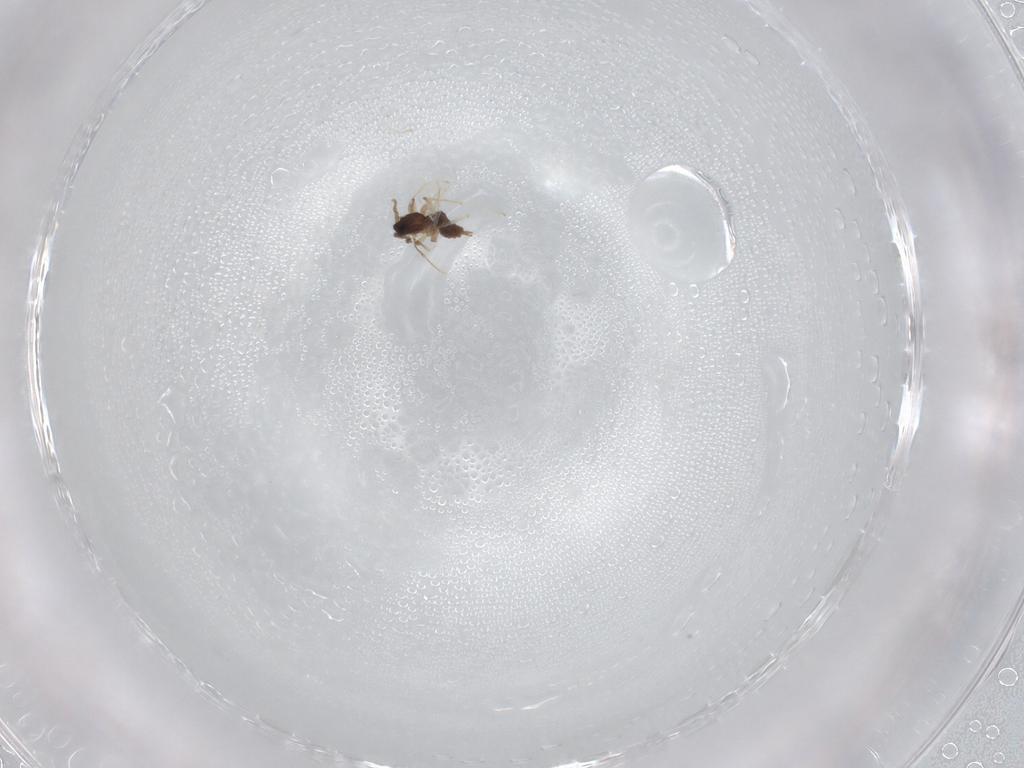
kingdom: Animalia
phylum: Arthropoda
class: Insecta
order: Diptera
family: Cecidomyiidae
